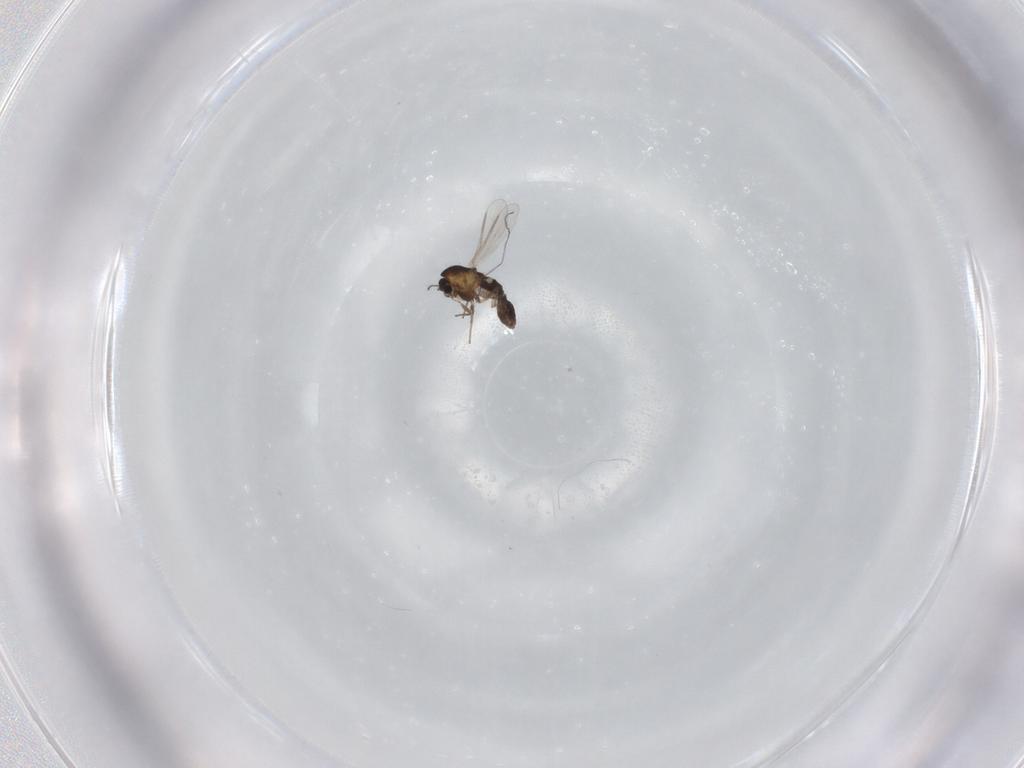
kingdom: Animalia
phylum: Arthropoda
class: Insecta
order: Diptera
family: Chironomidae
